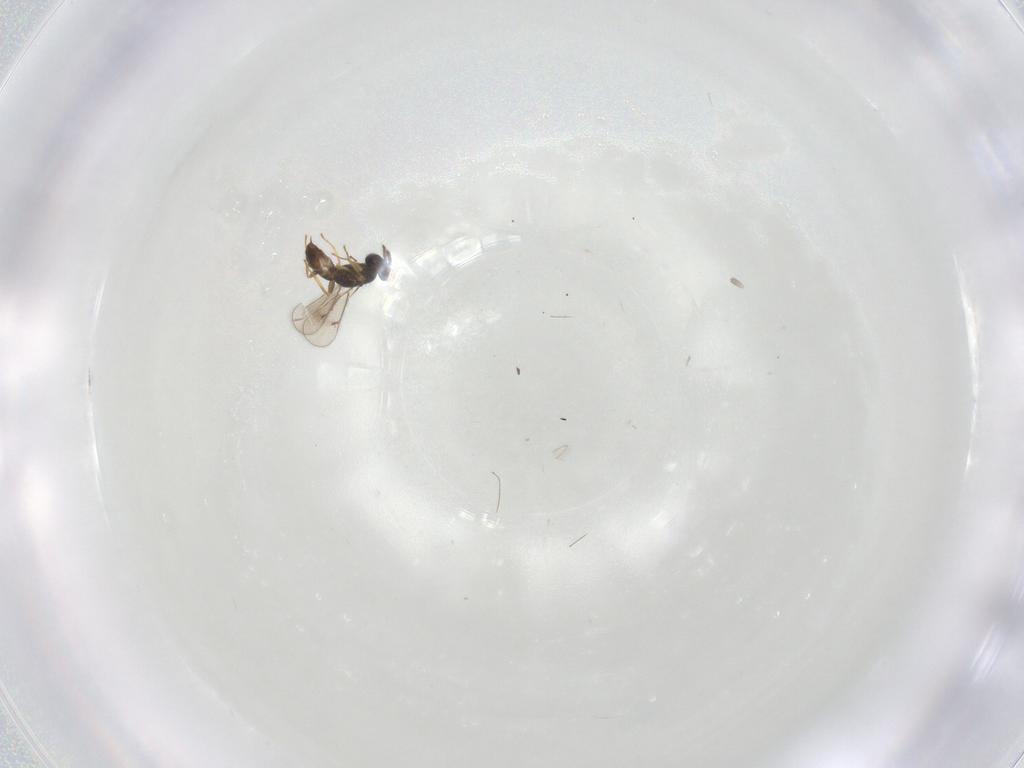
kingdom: Animalia
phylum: Arthropoda
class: Insecta
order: Hymenoptera
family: Eulophidae
